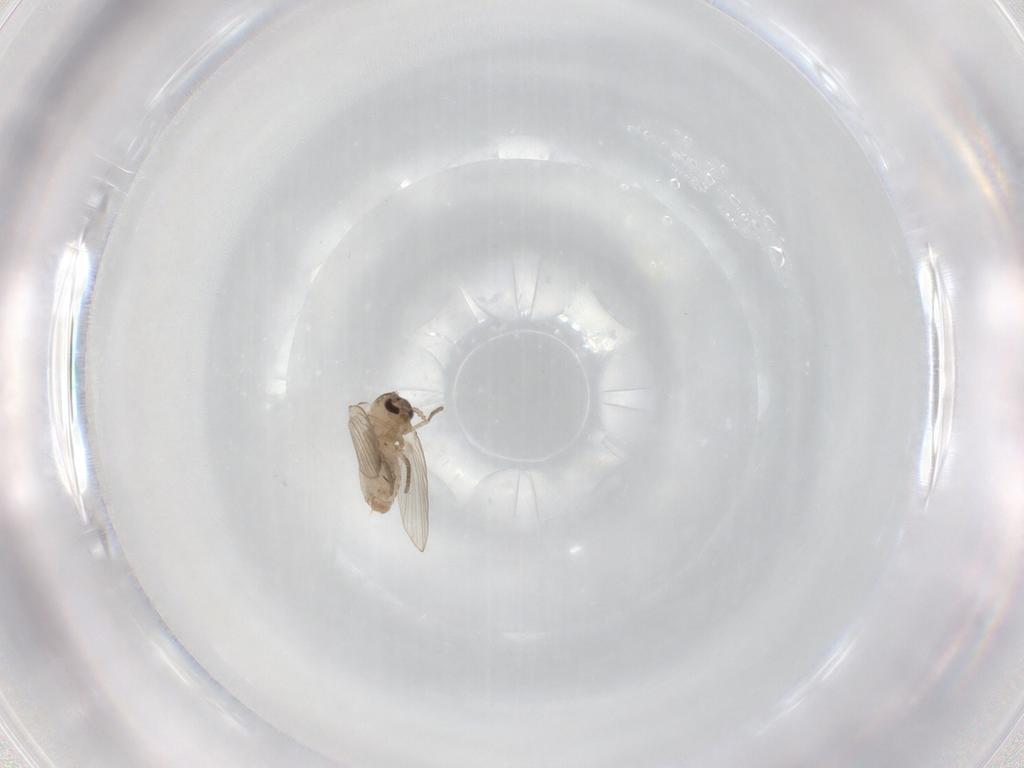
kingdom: Animalia
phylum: Arthropoda
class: Insecta
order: Diptera
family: Psychodidae
